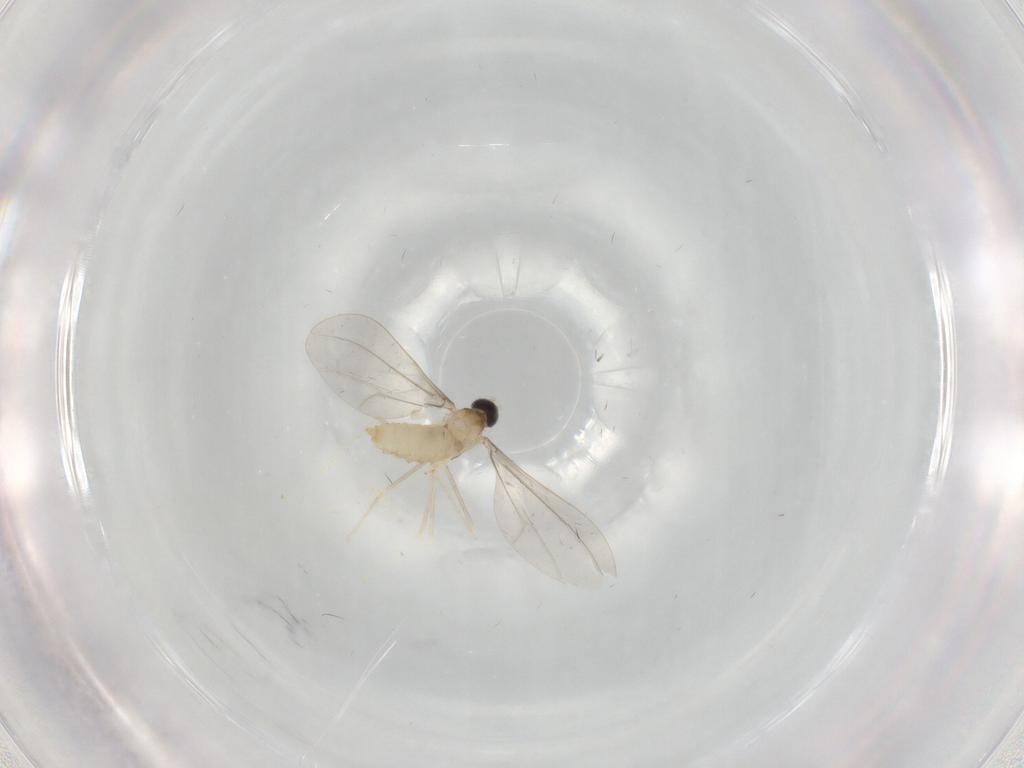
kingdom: Animalia
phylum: Arthropoda
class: Insecta
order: Diptera
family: Cecidomyiidae
